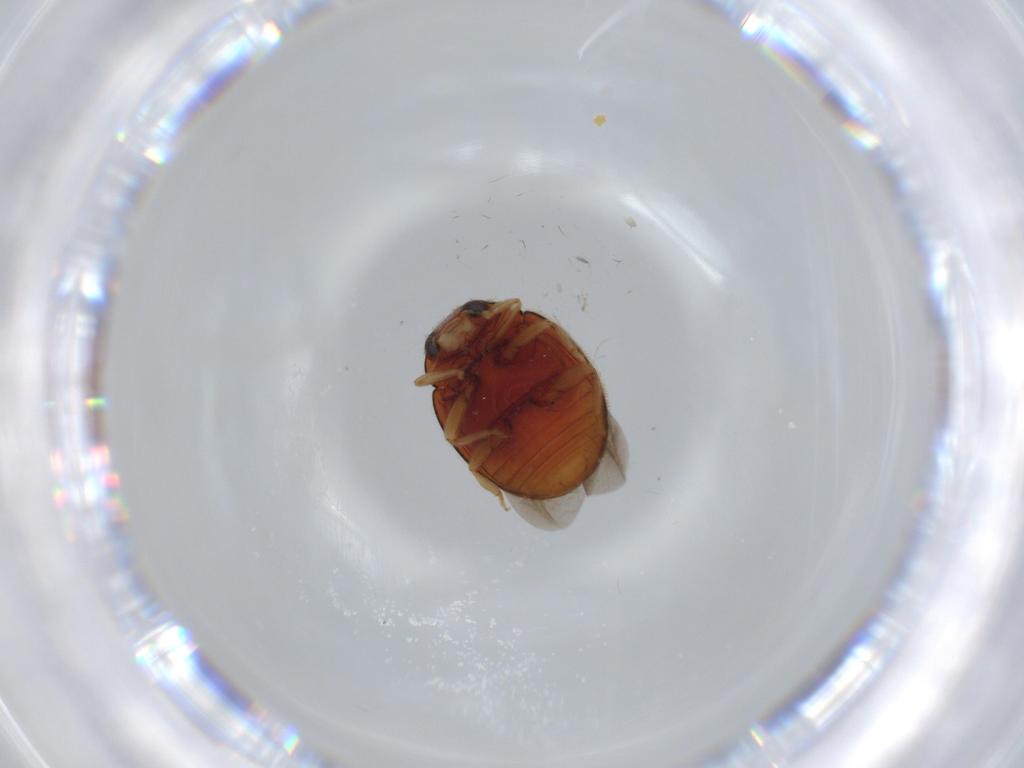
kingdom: Animalia
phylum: Arthropoda
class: Insecta
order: Coleoptera
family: Coccinellidae
